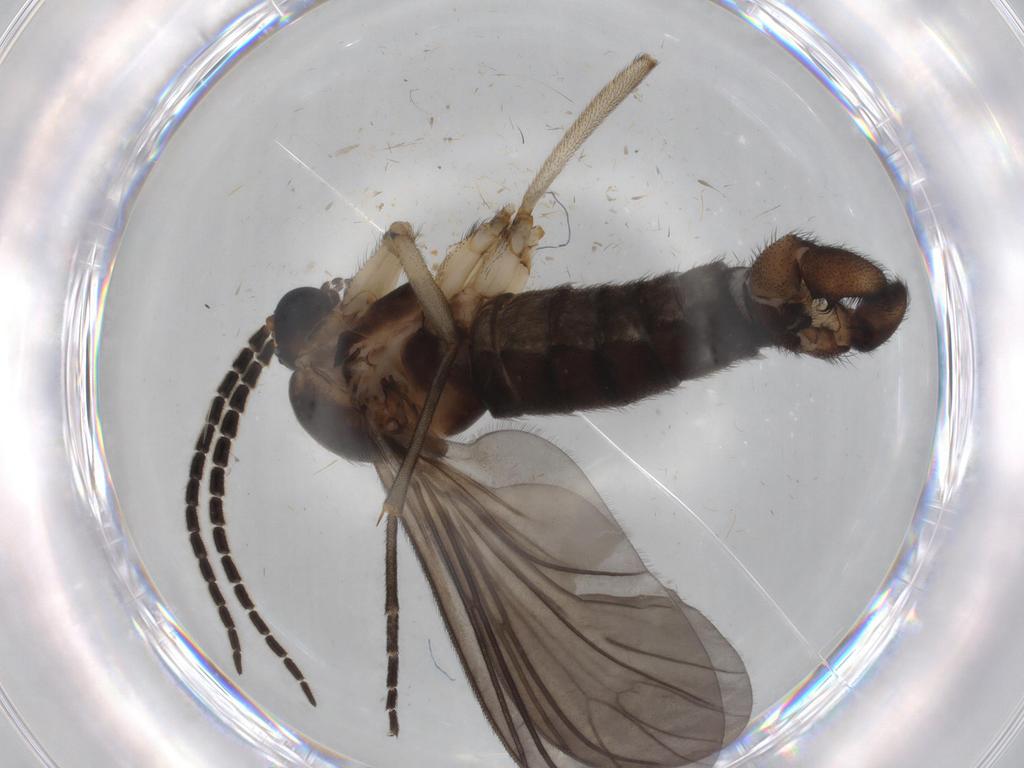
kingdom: Animalia
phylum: Arthropoda
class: Insecta
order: Diptera
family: Sciaridae
